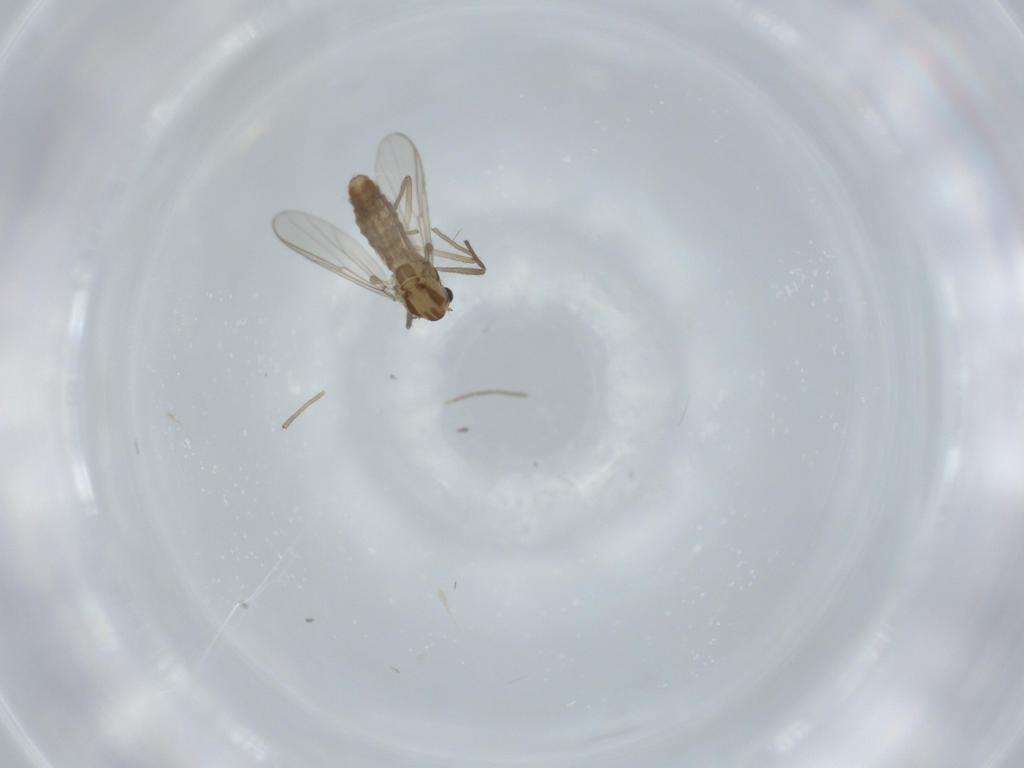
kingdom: Animalia
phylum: Arthropoda
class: Insecta
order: Diptera
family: Chironomidae
